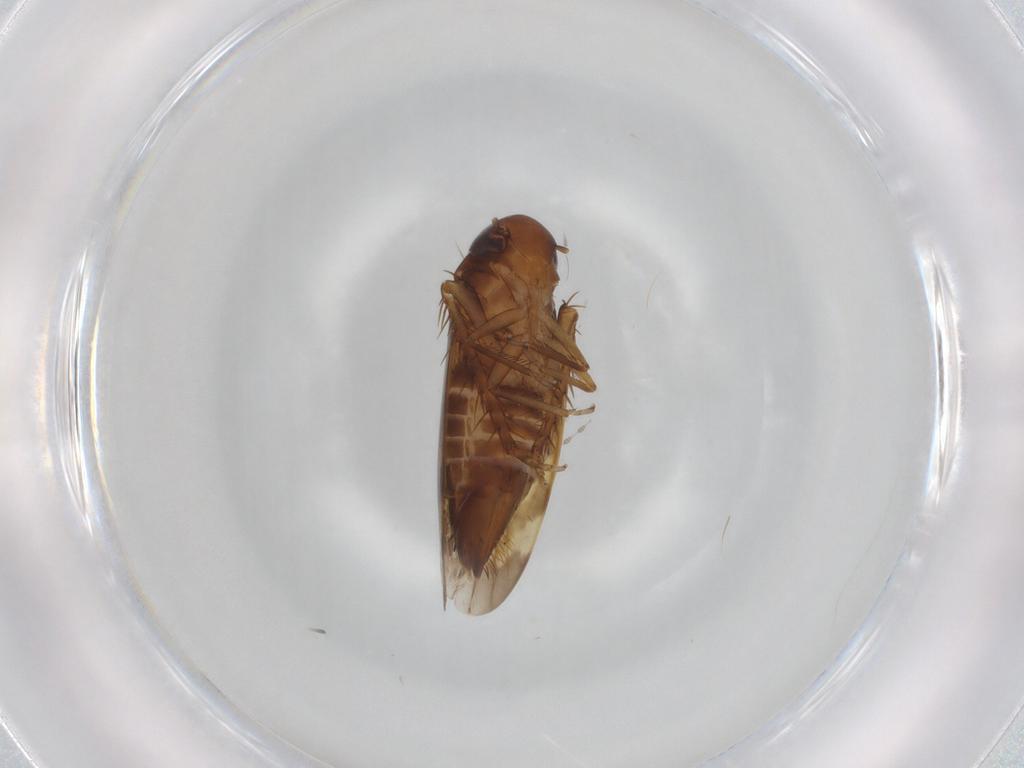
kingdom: Animalia
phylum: Arthropoda
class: Insecta
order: Hemiptera
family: Cicadellidae
